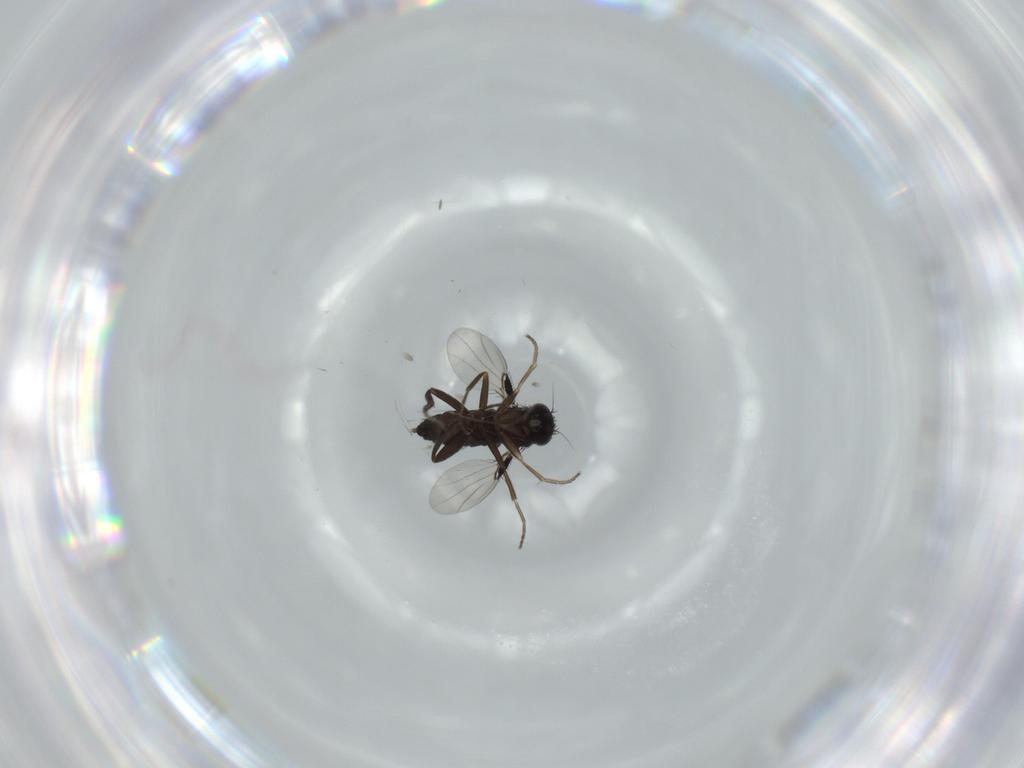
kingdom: Animalia
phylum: Arthropoda
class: Insecta
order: Diptera
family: Phoridae
